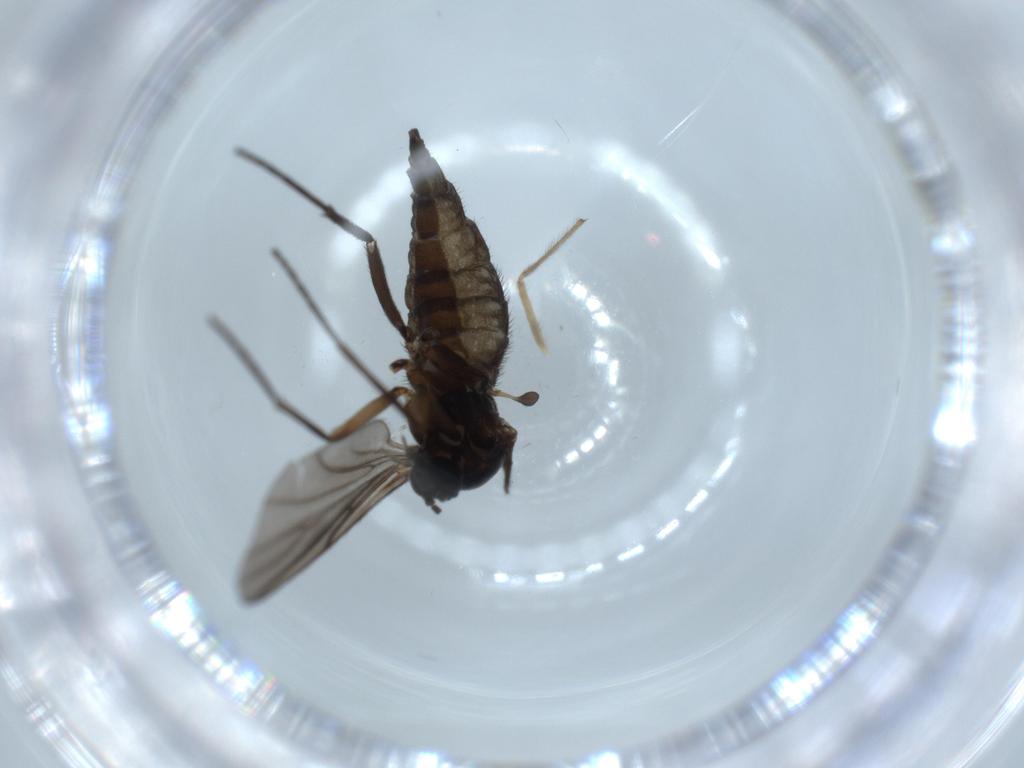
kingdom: Animalia
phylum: Arthropoda
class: Insecta
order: Diptera
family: Sciaridae
